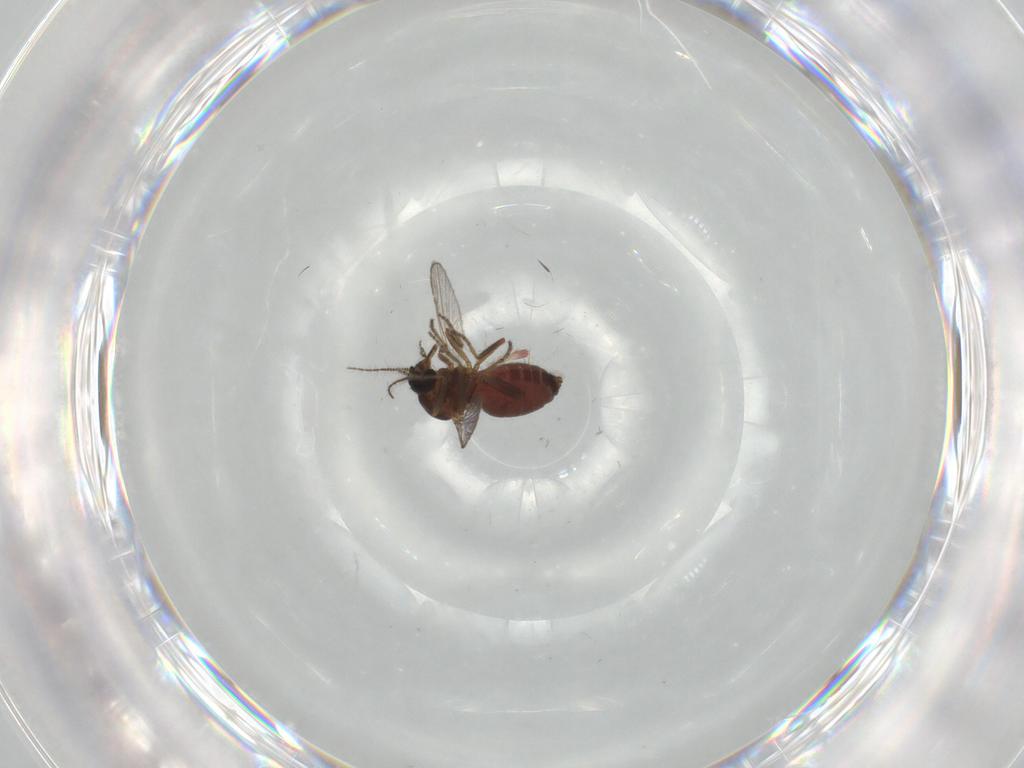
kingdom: Animalia
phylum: Arthropoda
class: Insecta
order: Diptera
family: Ceratopogonidae
